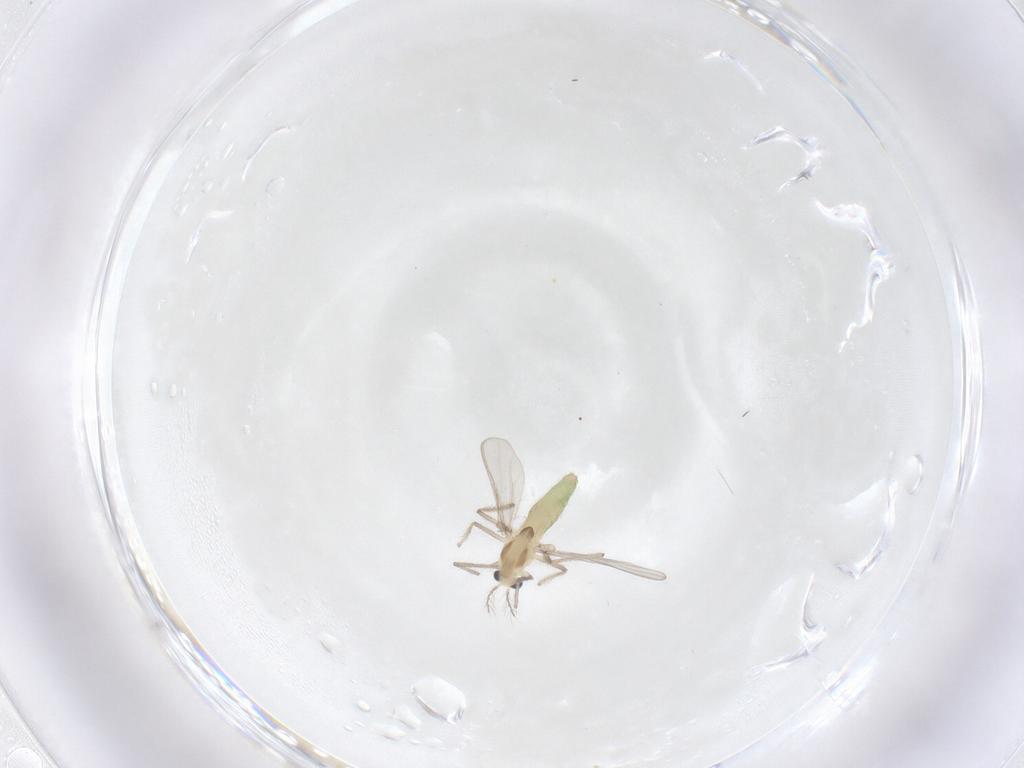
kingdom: Animalia
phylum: Arthropoda
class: Insecta
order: Diptera
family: Chironomidae
